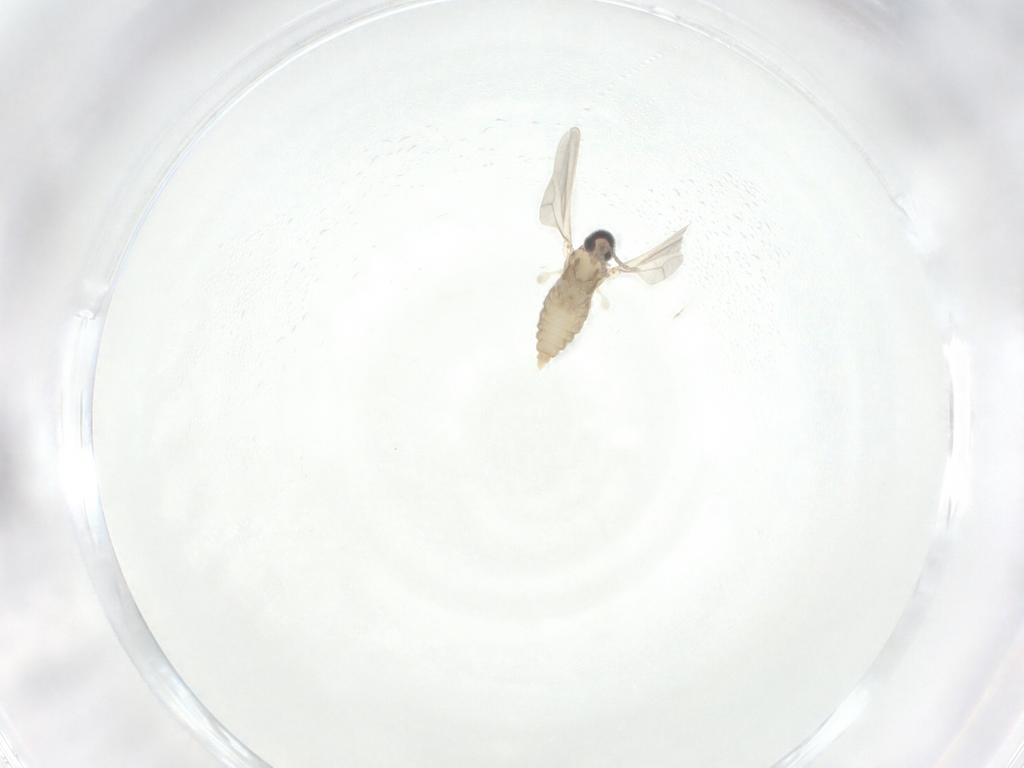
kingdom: Animalia
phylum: Arthropoda
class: Insecta
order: Diptera
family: Cecidomyiidae
